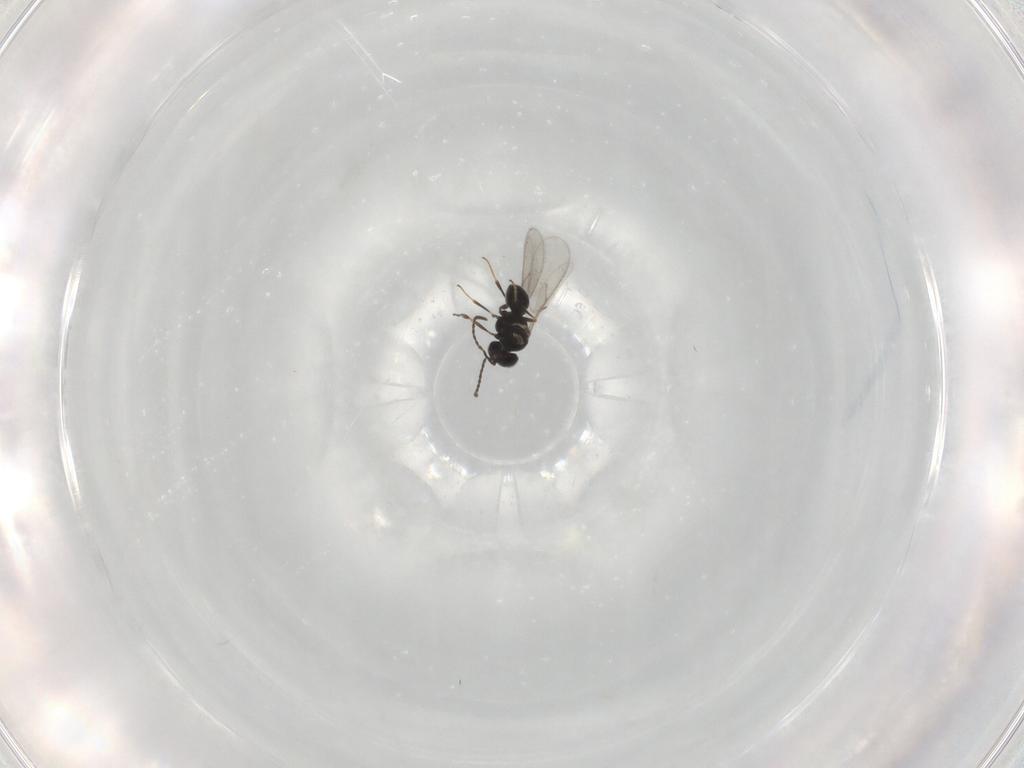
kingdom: Animalia
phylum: Arthropoda
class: Insecta
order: Hymenoptera
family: Scelionidae
